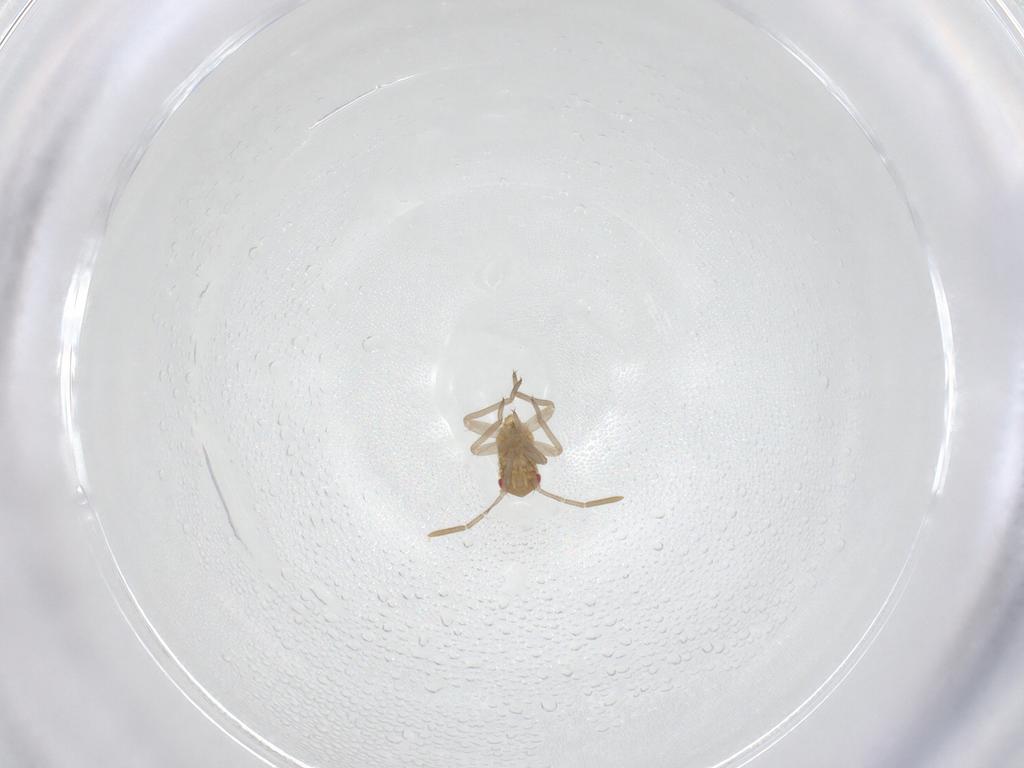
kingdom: Animalia
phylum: Arthropoda
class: Insecta
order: Hemiptera
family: Miridae
